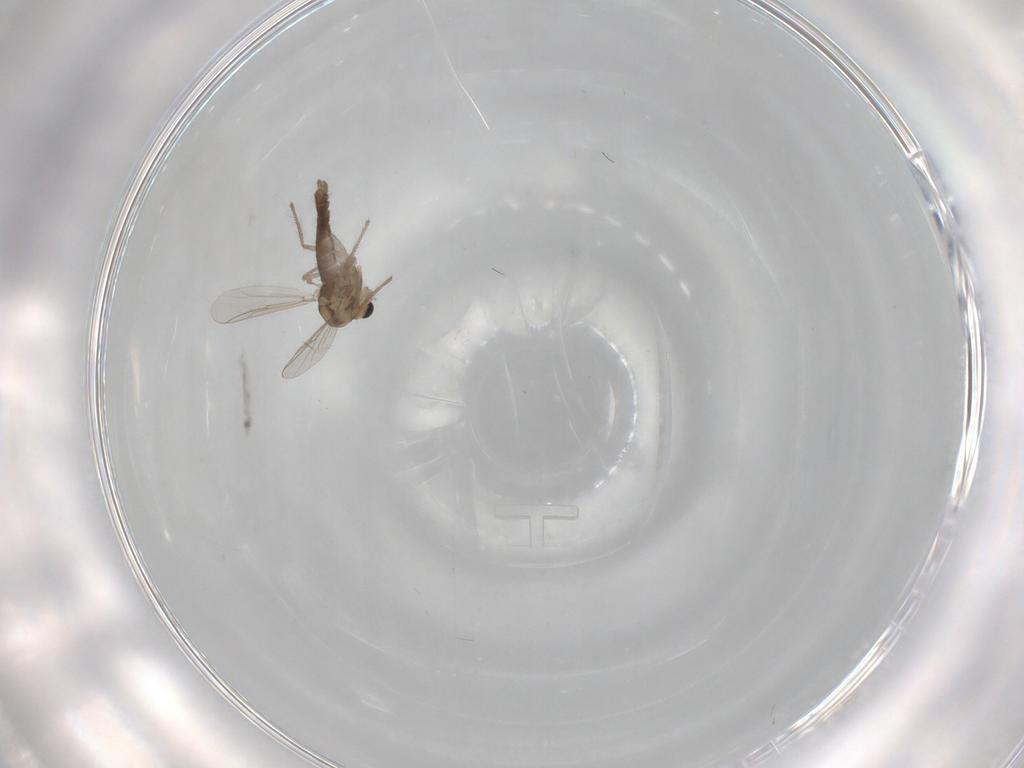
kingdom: Animalia
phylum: Arthropoda
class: Insecta
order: Diptera
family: Chironomidae
